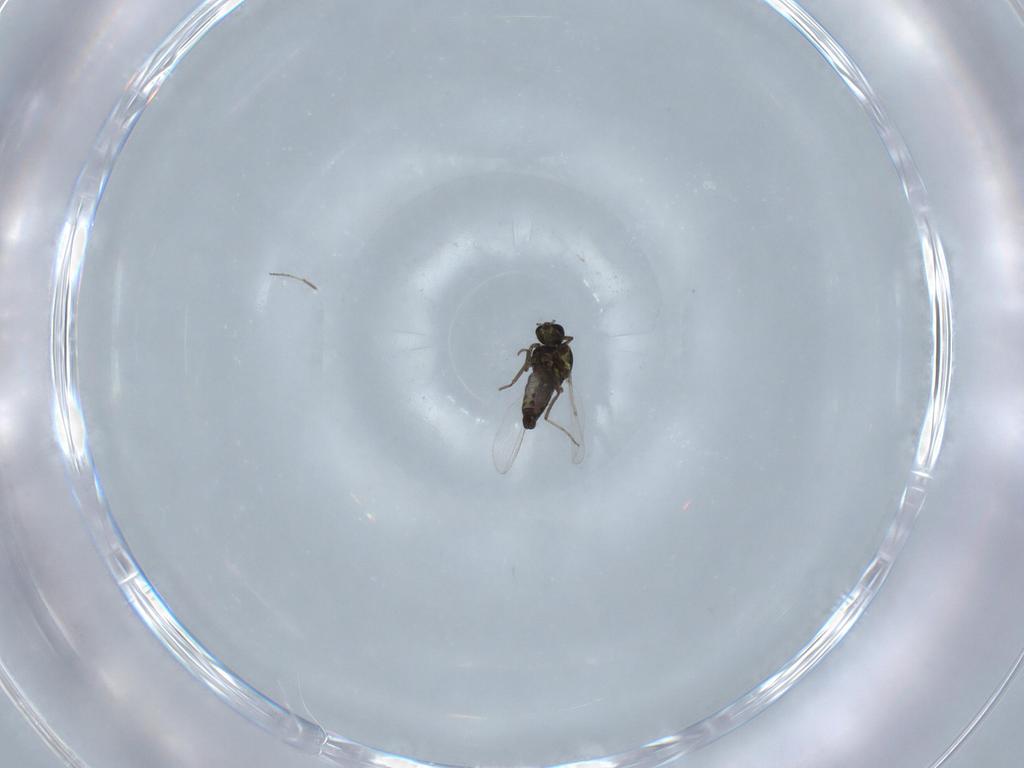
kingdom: Animalia
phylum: Arthropoda
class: Insecta
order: Diptera
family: Ceratopogonidae
